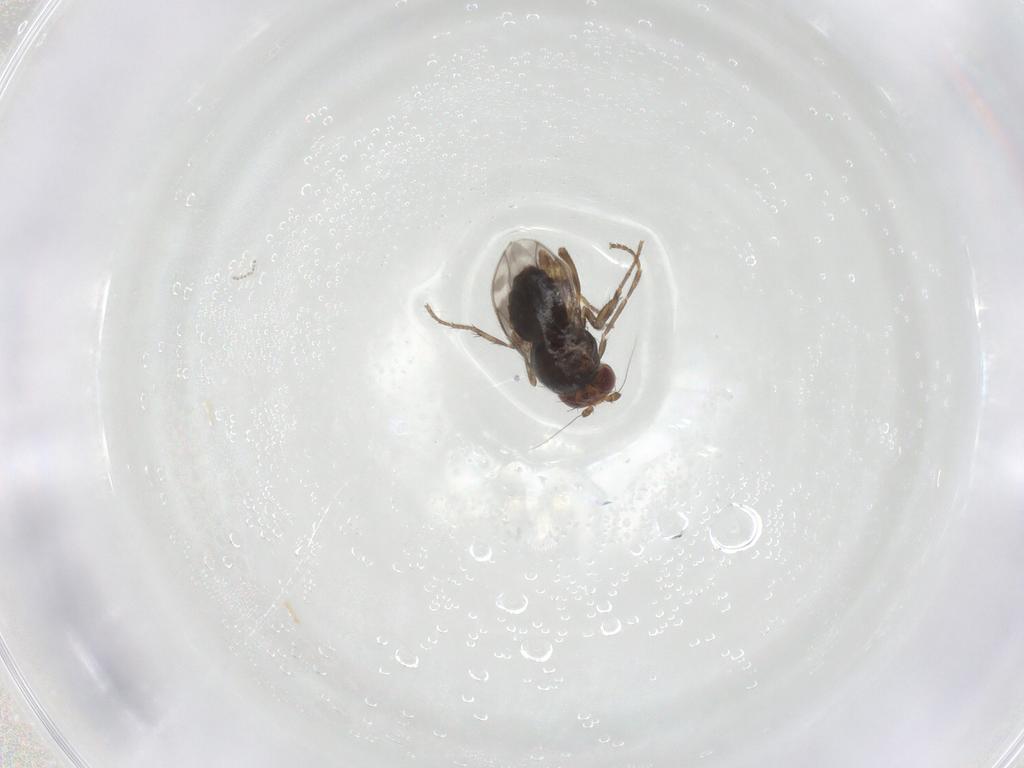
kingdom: Animalia
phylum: Arthropoda
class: Insecta
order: Diptera
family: Sphaeroceridae
